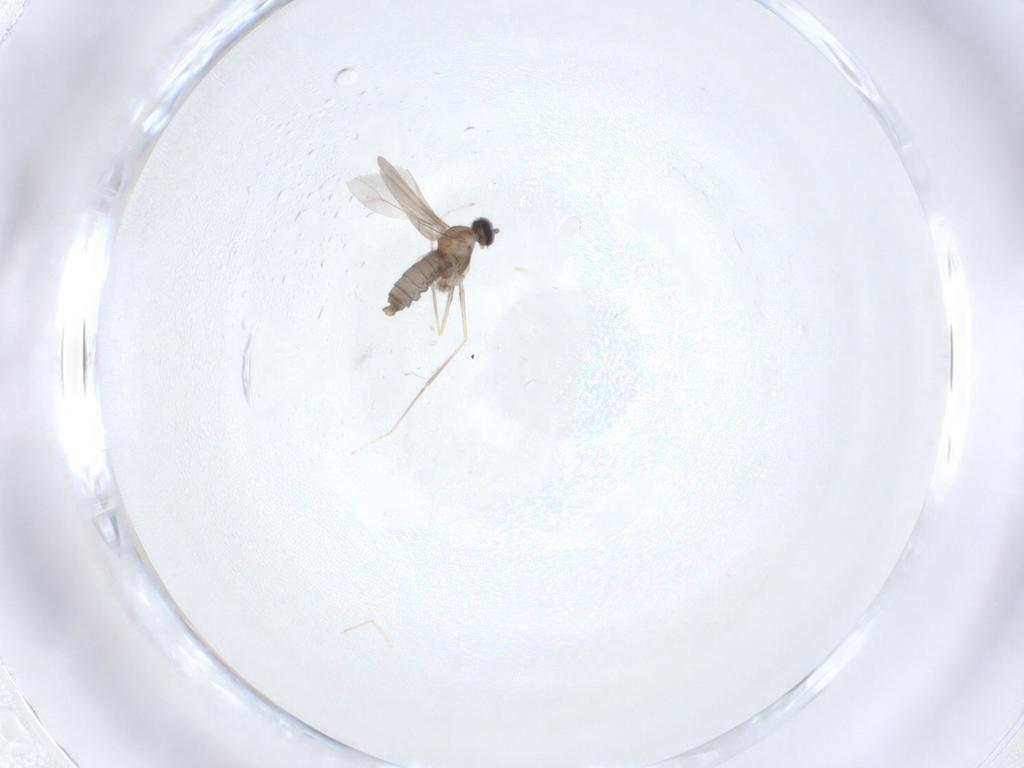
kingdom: Animalia
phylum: Arthropoda
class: Insecta
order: Diptera
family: Cecidomyiidae
